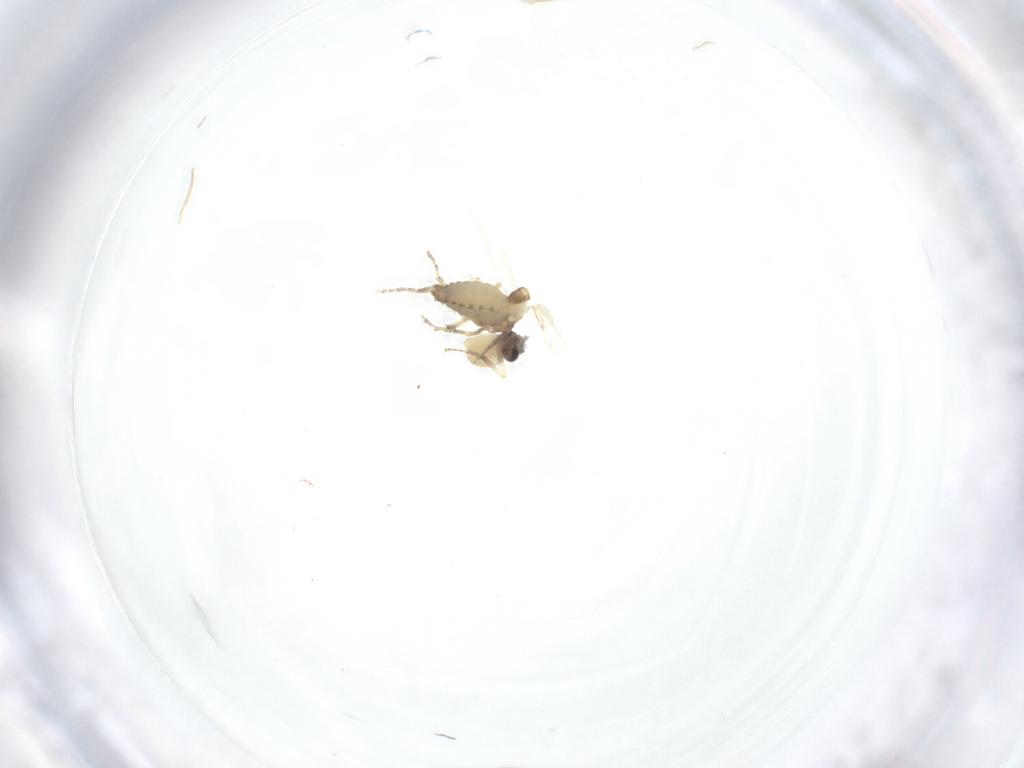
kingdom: Animalia
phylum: Arthropoda
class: Insecta
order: Diptera
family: Ceratopogonidae
